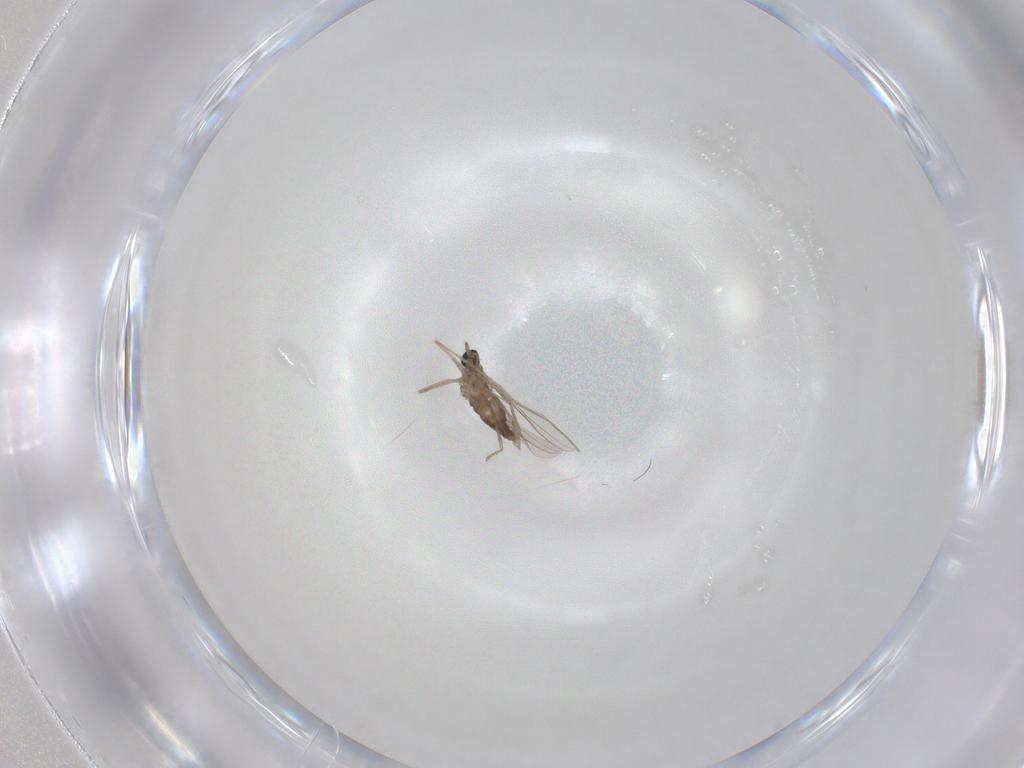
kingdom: Animalia
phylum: Arthropoda
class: Insecta
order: Diptera
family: Cecidomyiidae
